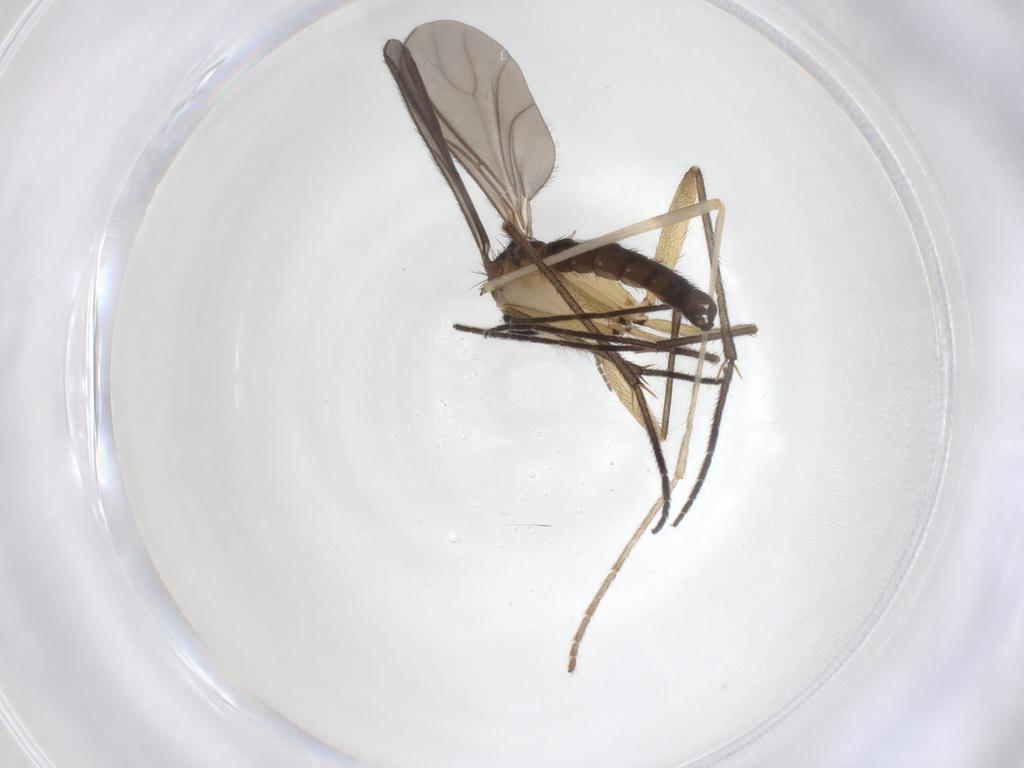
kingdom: Animalia
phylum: Arthropoda
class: Insecta
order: Diptera
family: Sciaridae
